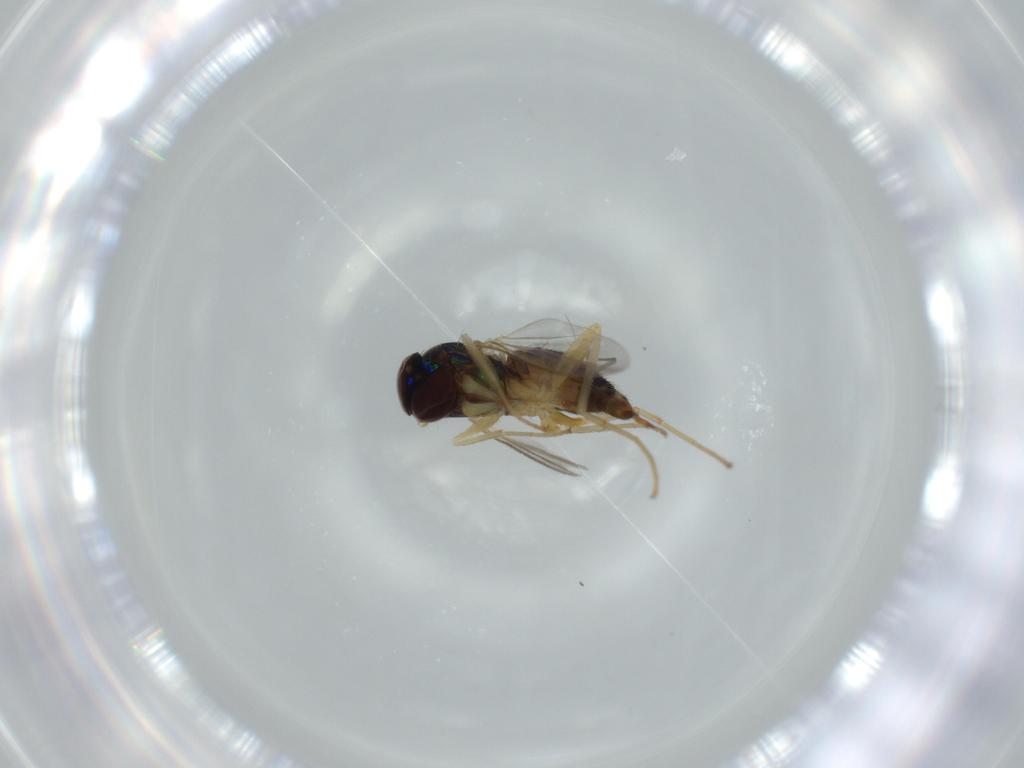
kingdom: Animalia
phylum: Arthropoda
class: Insecta
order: Diptera
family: Dolichopodidae
